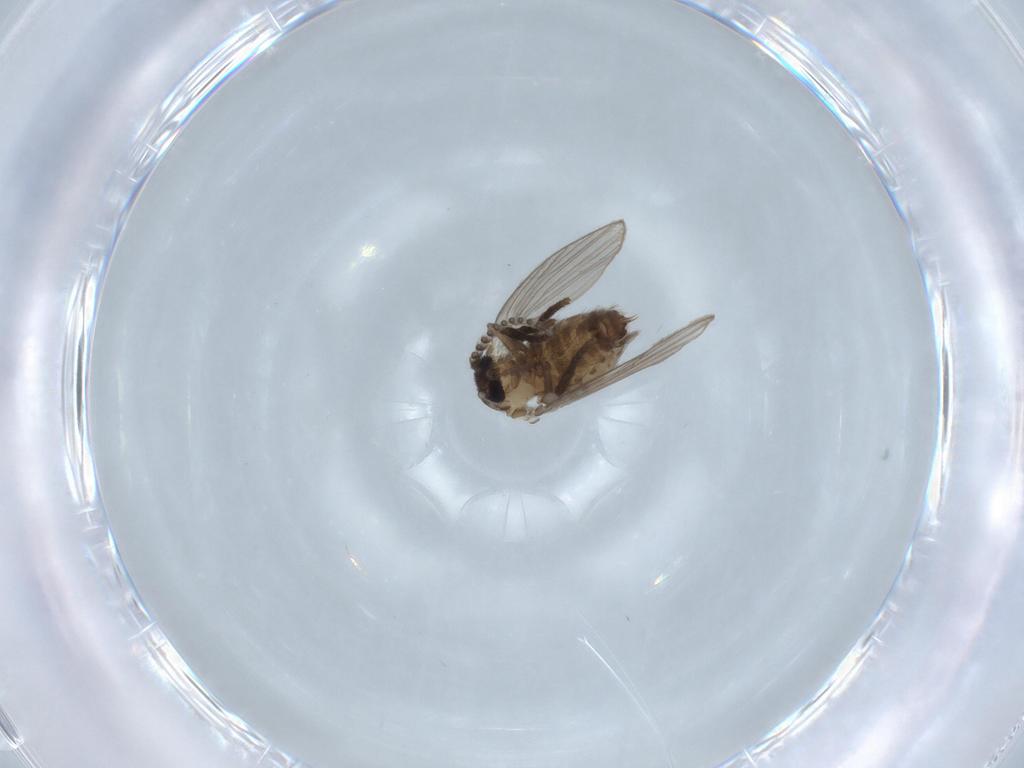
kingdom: Animalia
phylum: Arthropoda
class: Insecta
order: Diptera
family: Psychodidae
